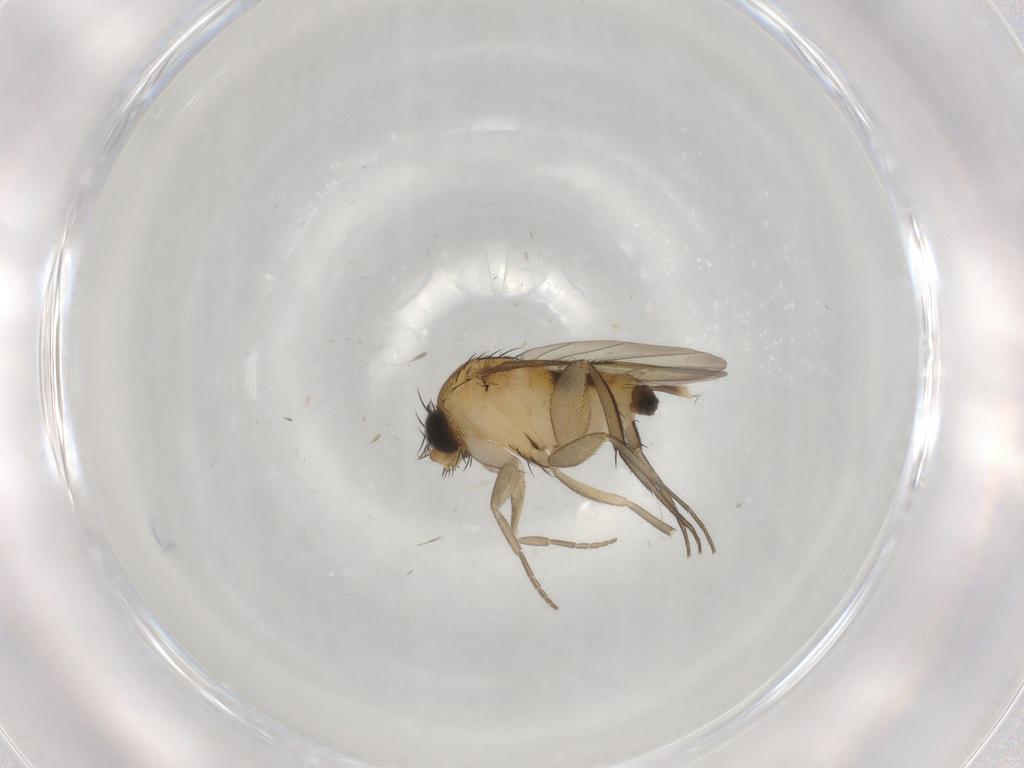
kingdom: Animalia
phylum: Arthropoda
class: Insecta
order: Diptera
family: Phoridae
